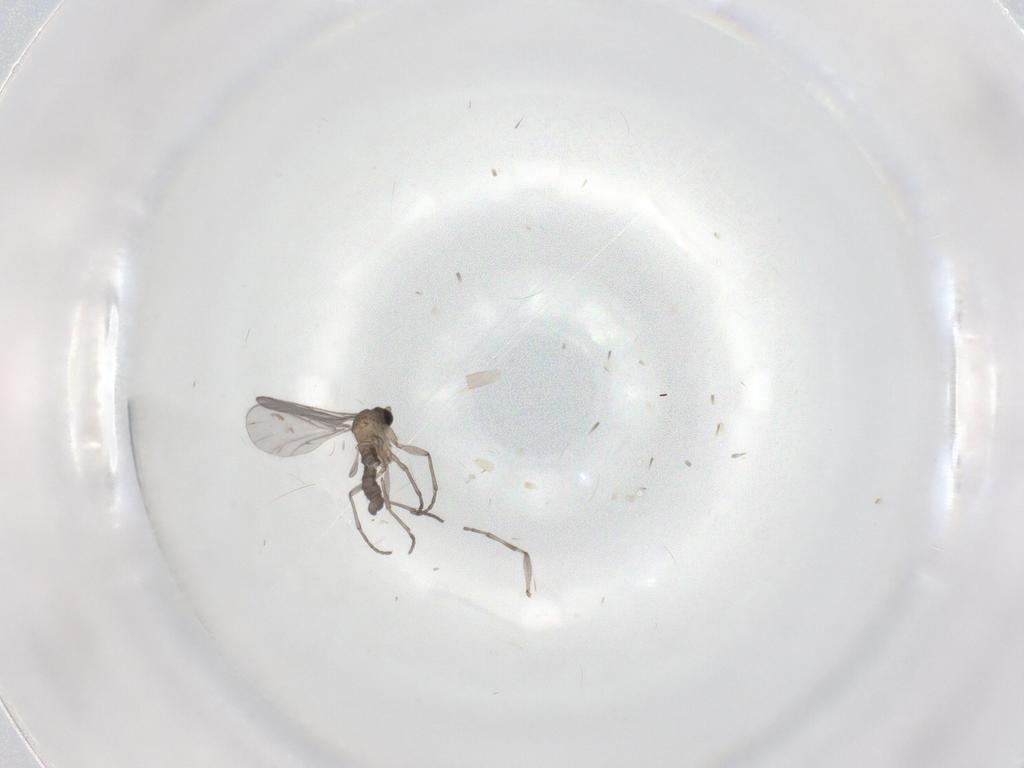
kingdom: Animalia
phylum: Arthropoda
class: Insecta
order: Diptera
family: Sciaridae
